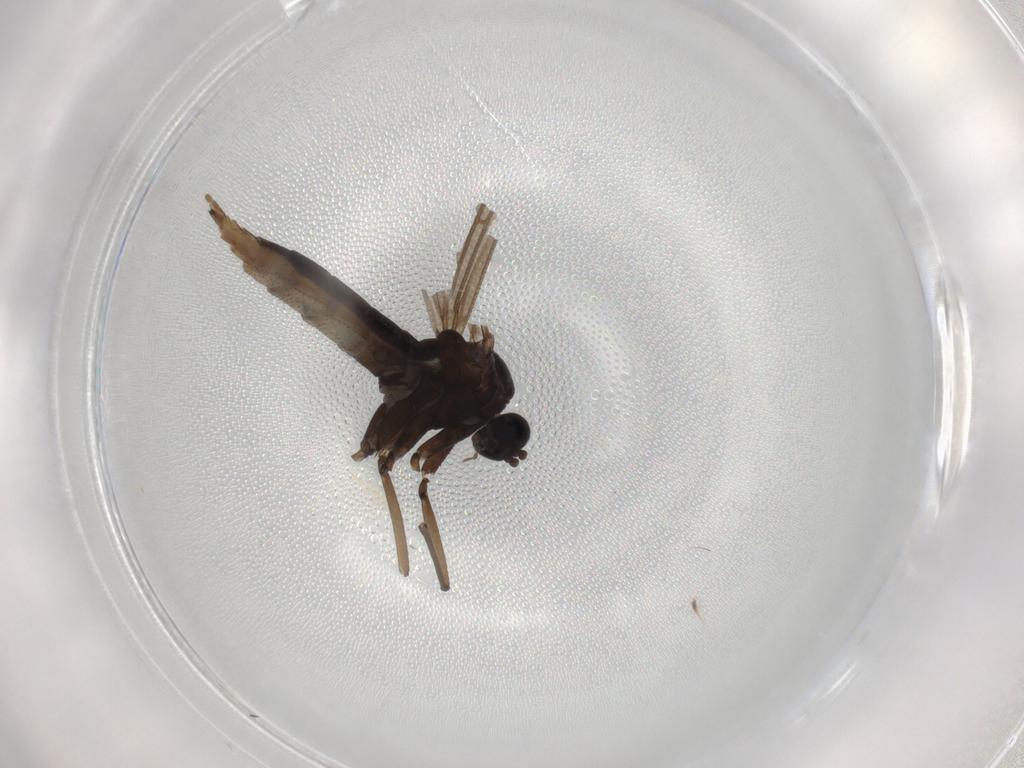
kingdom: Animalia
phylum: Arthropoda
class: Insecta
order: Diptera
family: Sciaridae
